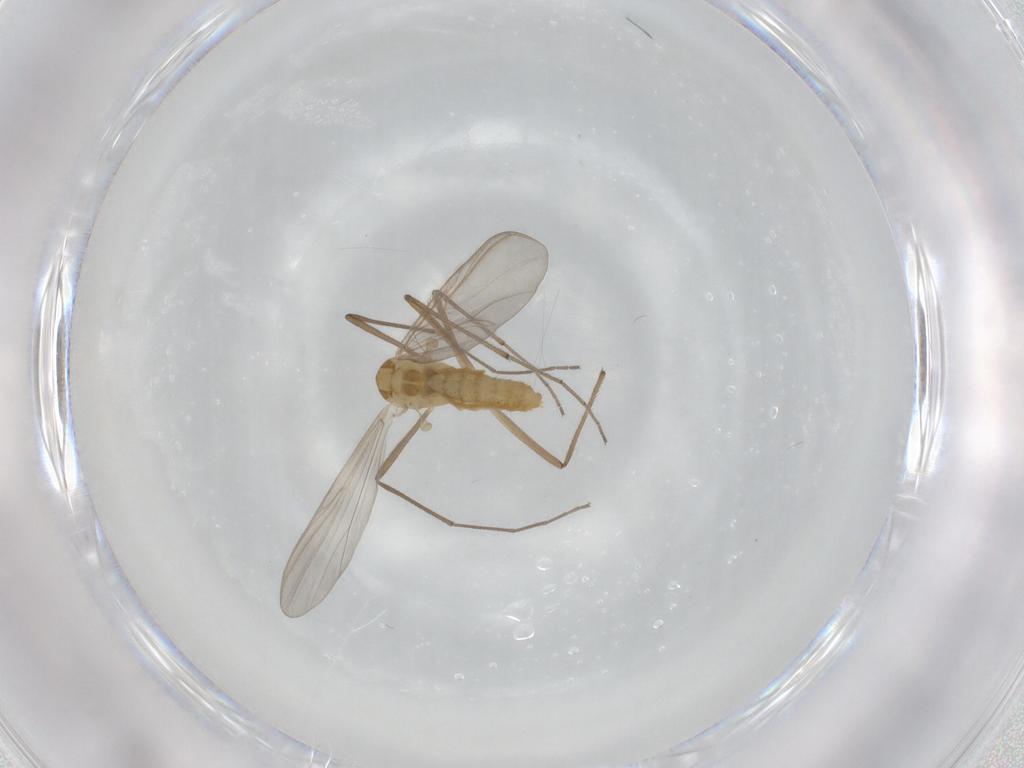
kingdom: Animalia
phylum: Arthropoda
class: Insecta
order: Diptera
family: Chironomidae
